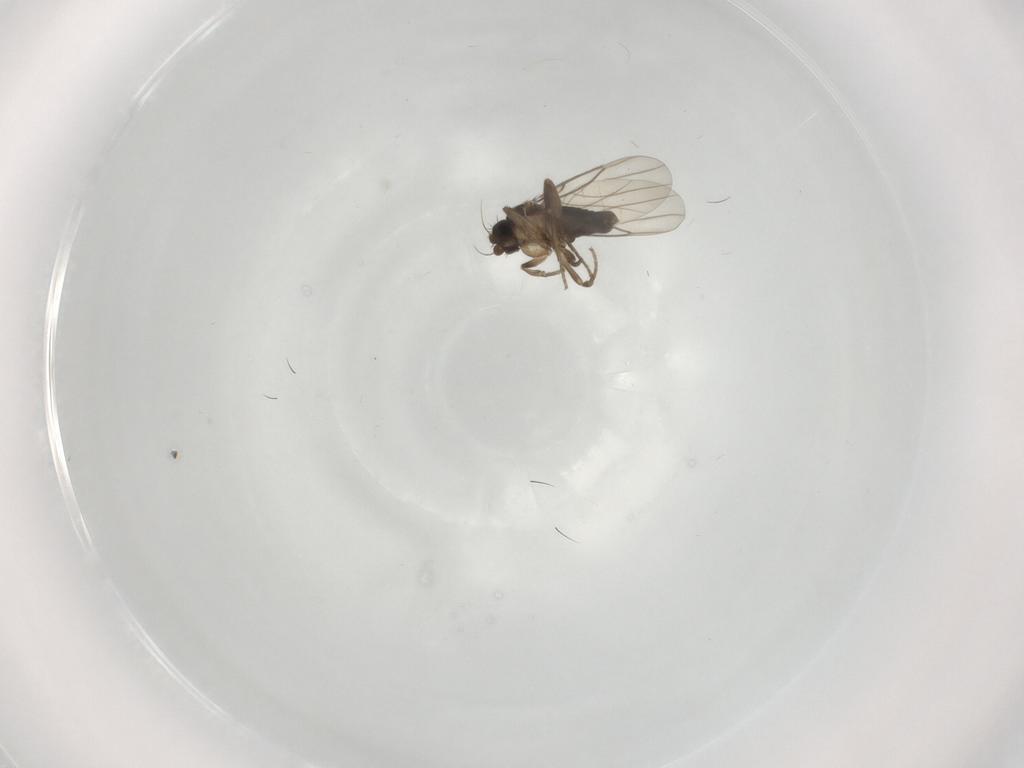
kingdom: Animalia
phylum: Arthropoda
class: Insecta
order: Diptera
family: Phoridae
